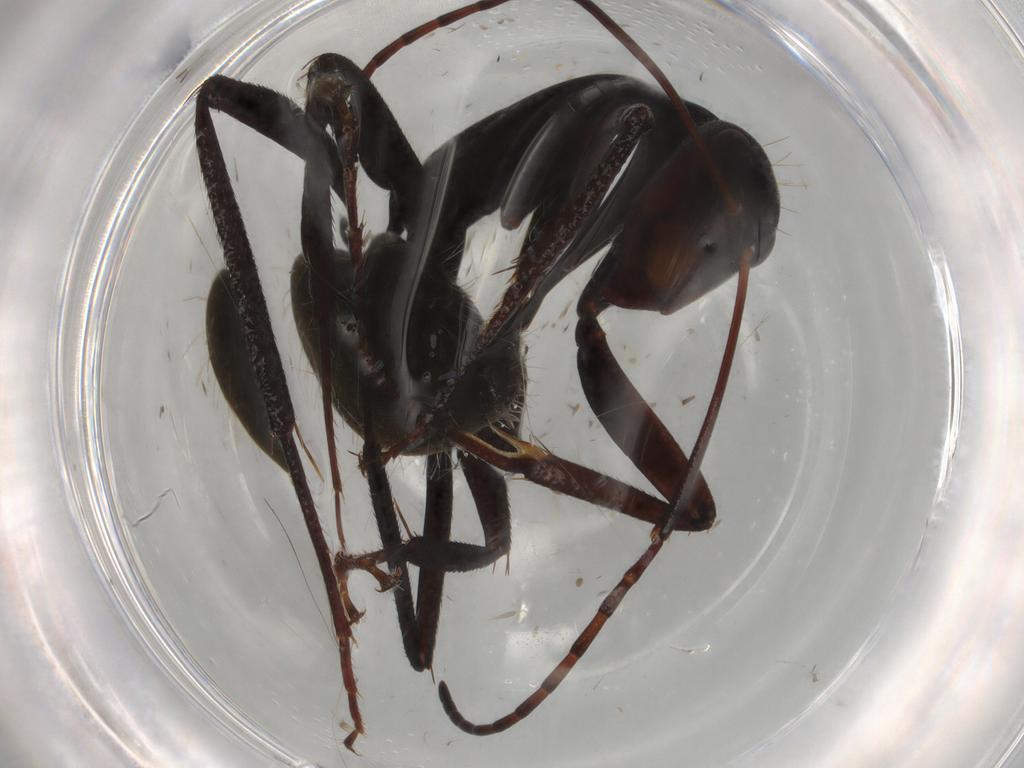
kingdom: Animalia
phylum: Arthropoda
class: Insecta
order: Hymenoptera
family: Formicidae
